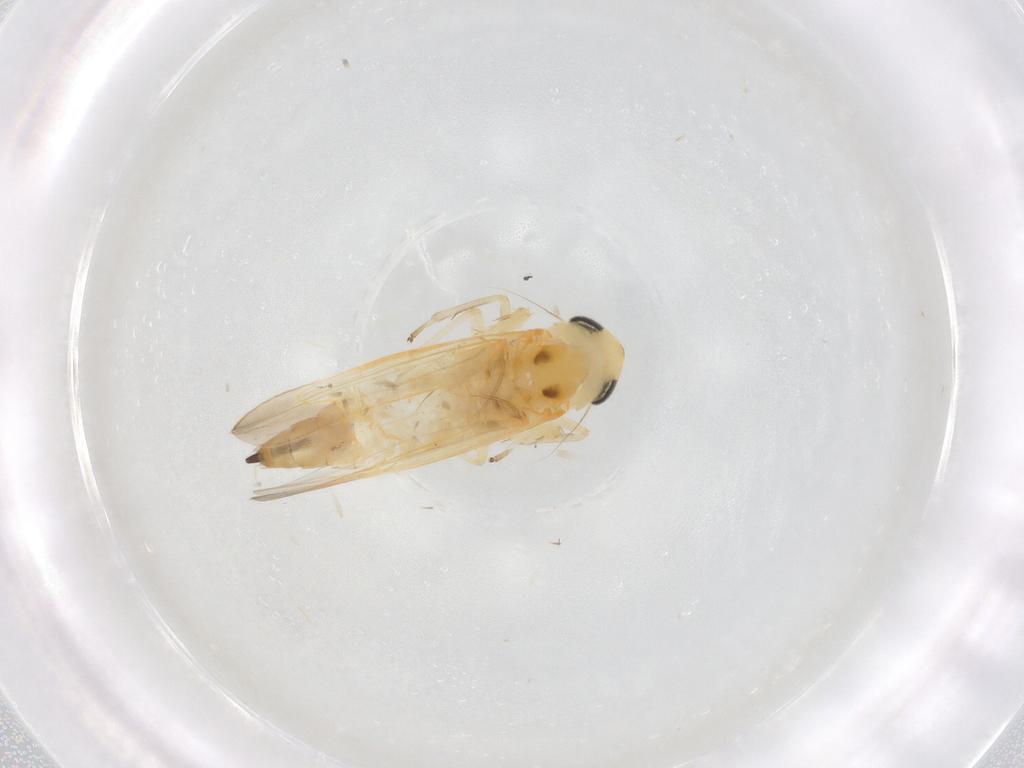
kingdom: Animalia
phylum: Arthropoda
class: Insecta
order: Hemiptera
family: Cicadellidae
